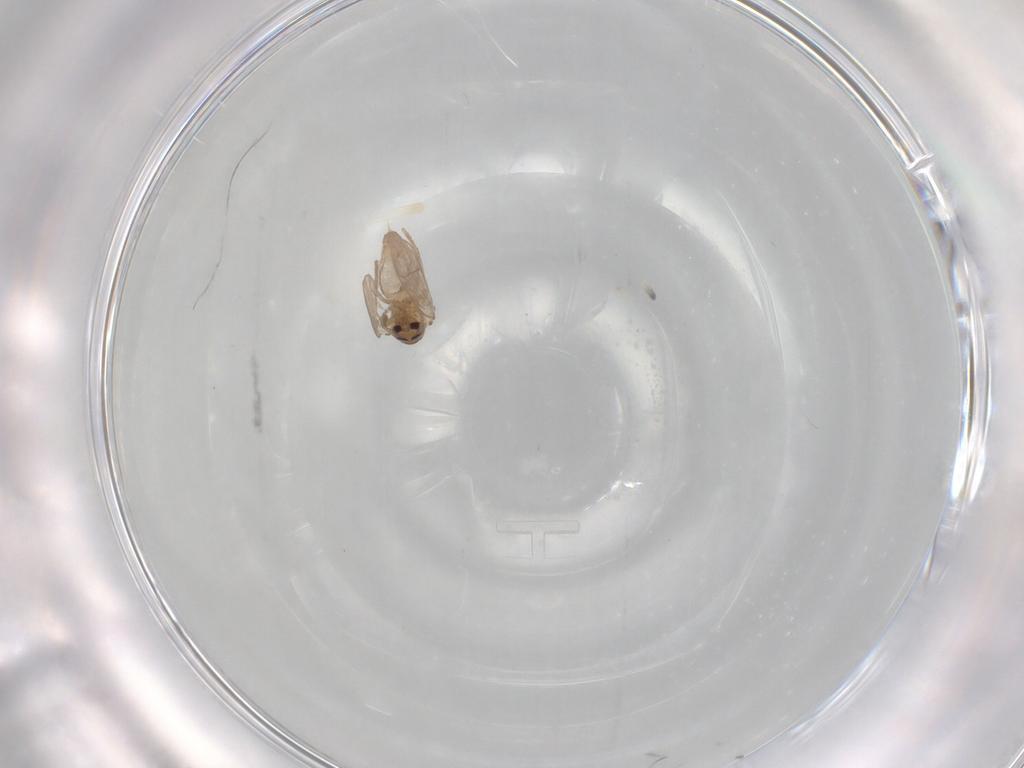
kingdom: Animalia
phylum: Arthropoda
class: Insecta
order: Diptera
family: Psychodidae
